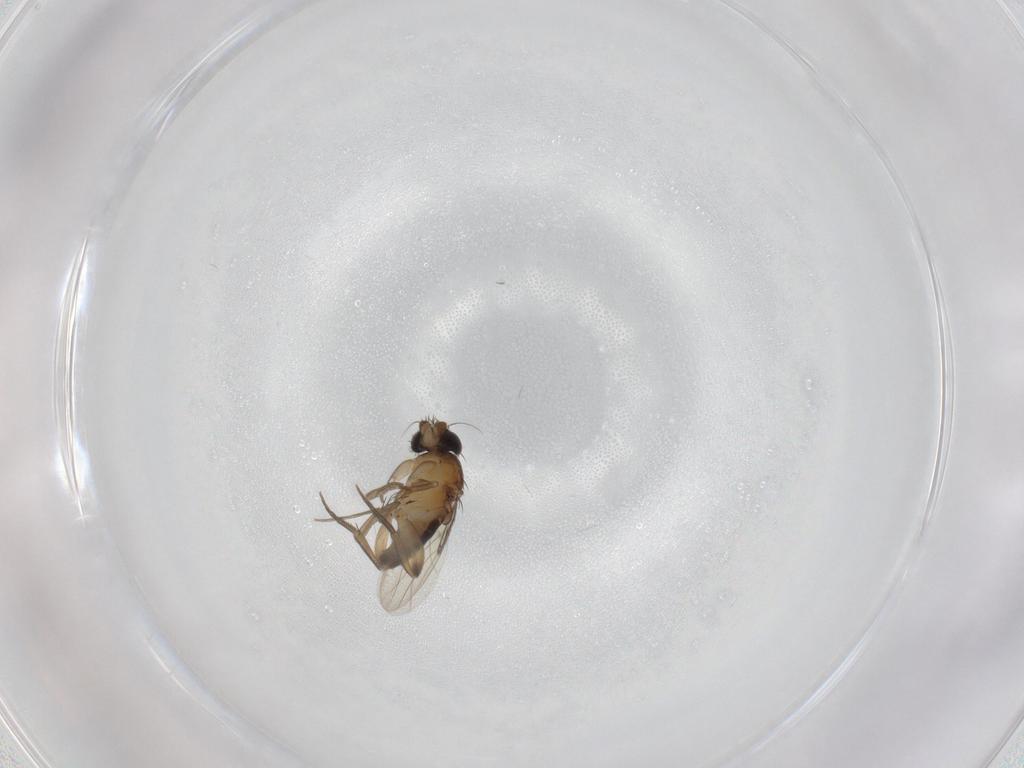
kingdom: Animalia
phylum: Arthropoda
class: Insecta
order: Diptera
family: Phoridae
